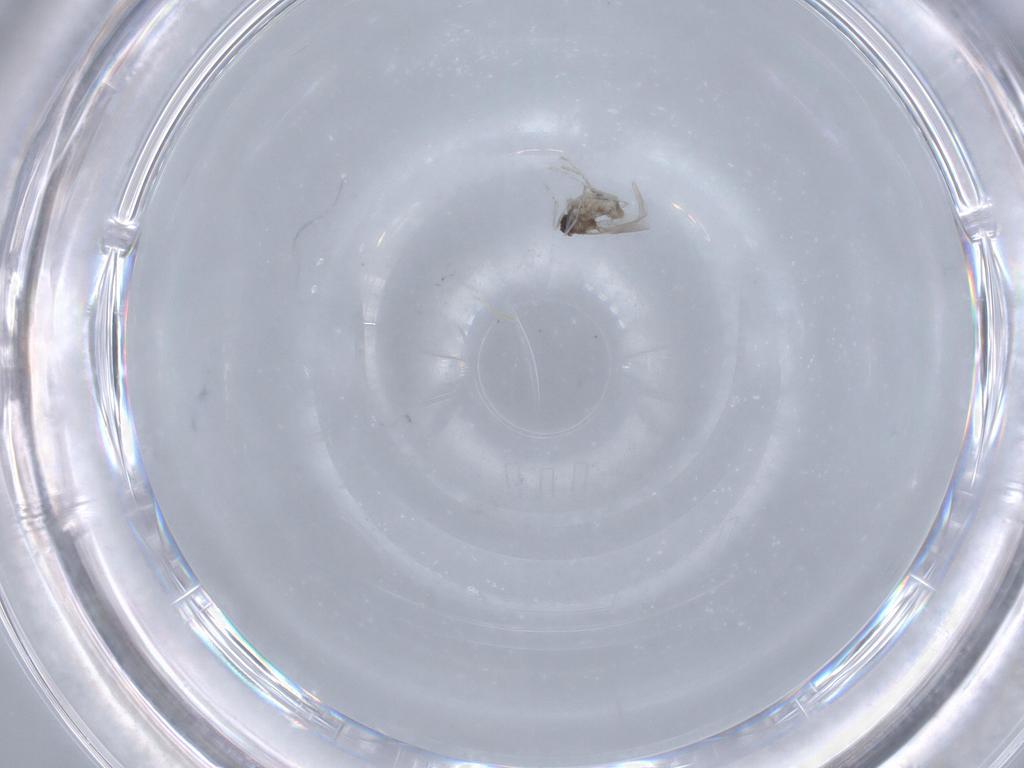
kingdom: Animalia
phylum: Arthropoda
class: Insecta
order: Diptera
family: Cecidomyiidae
